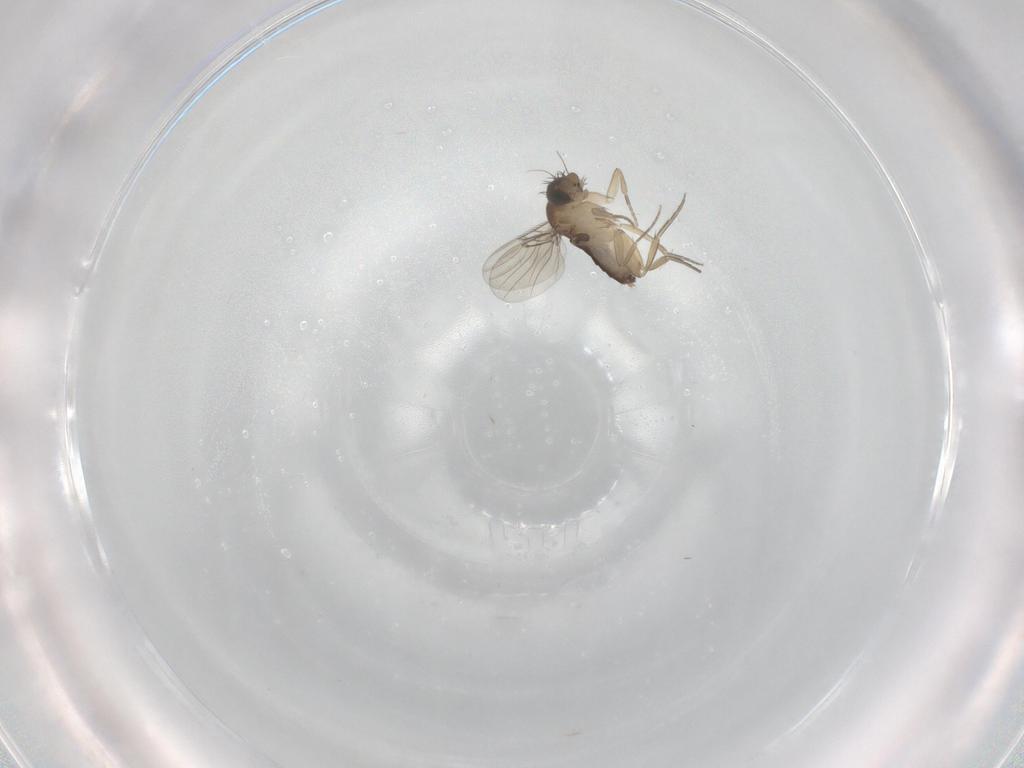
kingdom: Animalia
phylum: Arthropoda
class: Insecta
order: Diptera
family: Phoridae
